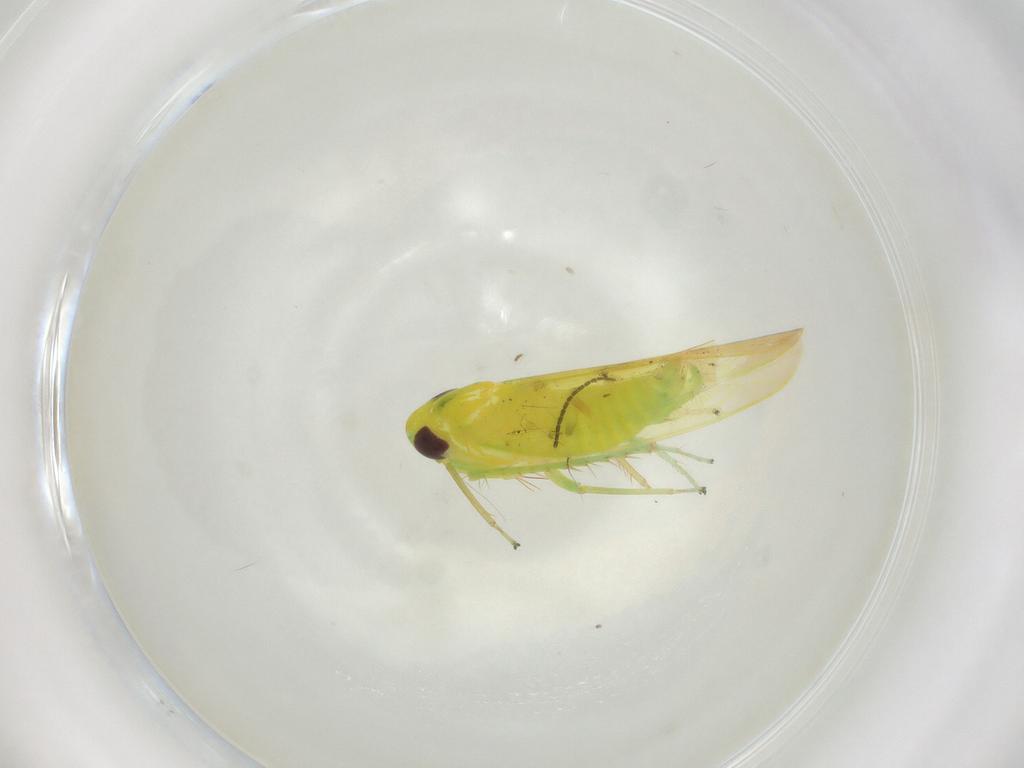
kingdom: Animalia
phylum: Arthropoda
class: Insecta
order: Hemiptera
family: Cicadellidae
